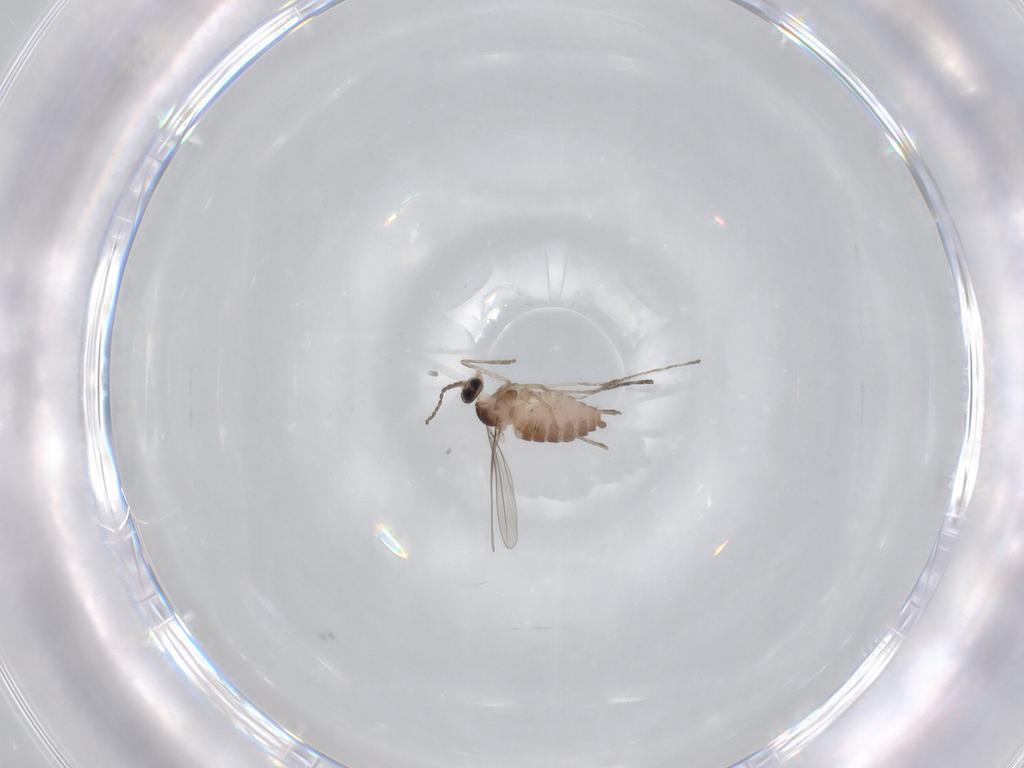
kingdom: Animalia
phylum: Arthropoda
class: Insecta
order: Diptera
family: Cecidomyiidae
